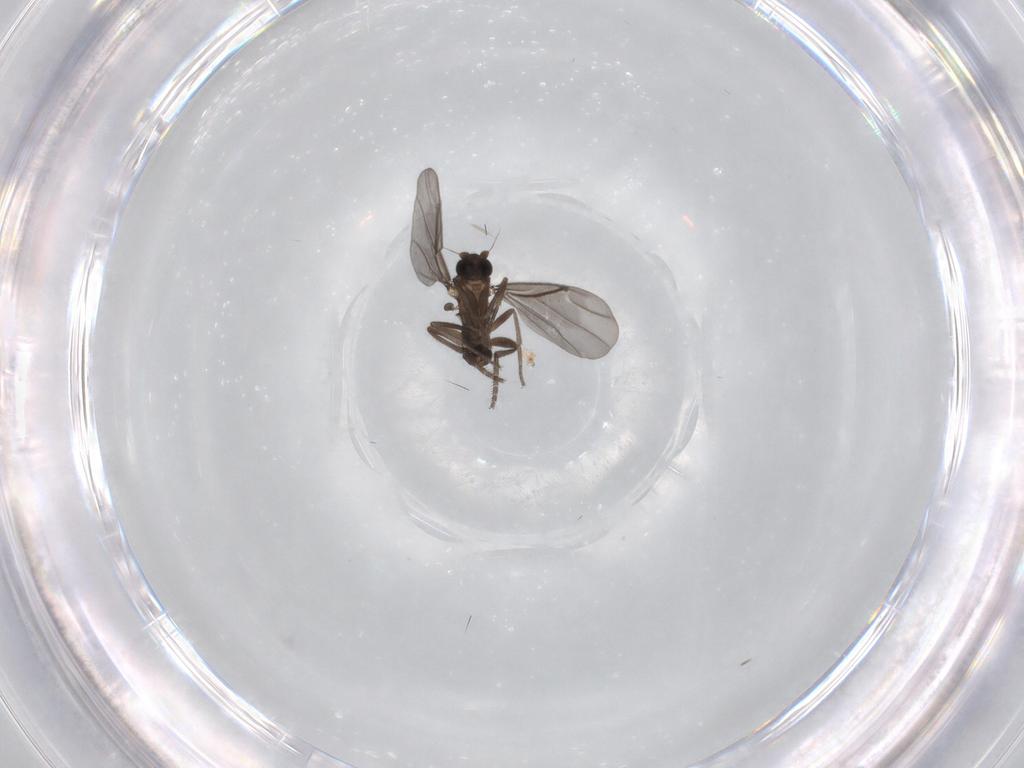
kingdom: Animalia
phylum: Arthropoda
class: Insecta
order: Diptera
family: Phoridae
